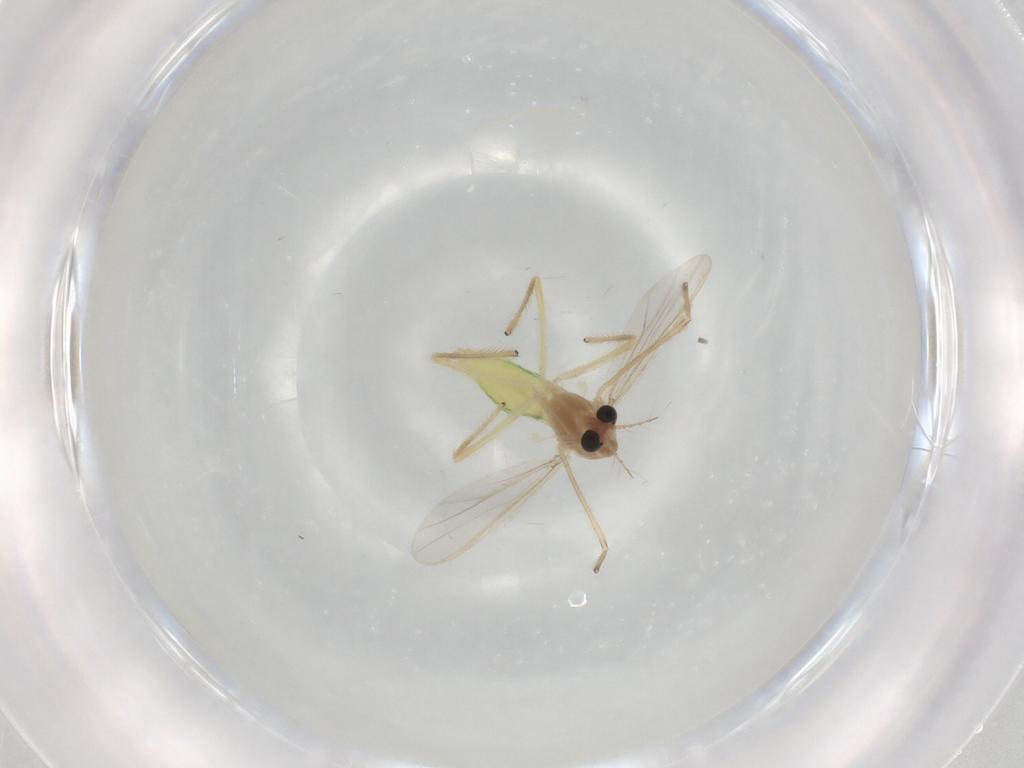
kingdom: Animalia
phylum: Arthropoda
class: Insecta
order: Diptera
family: Chironomidae
